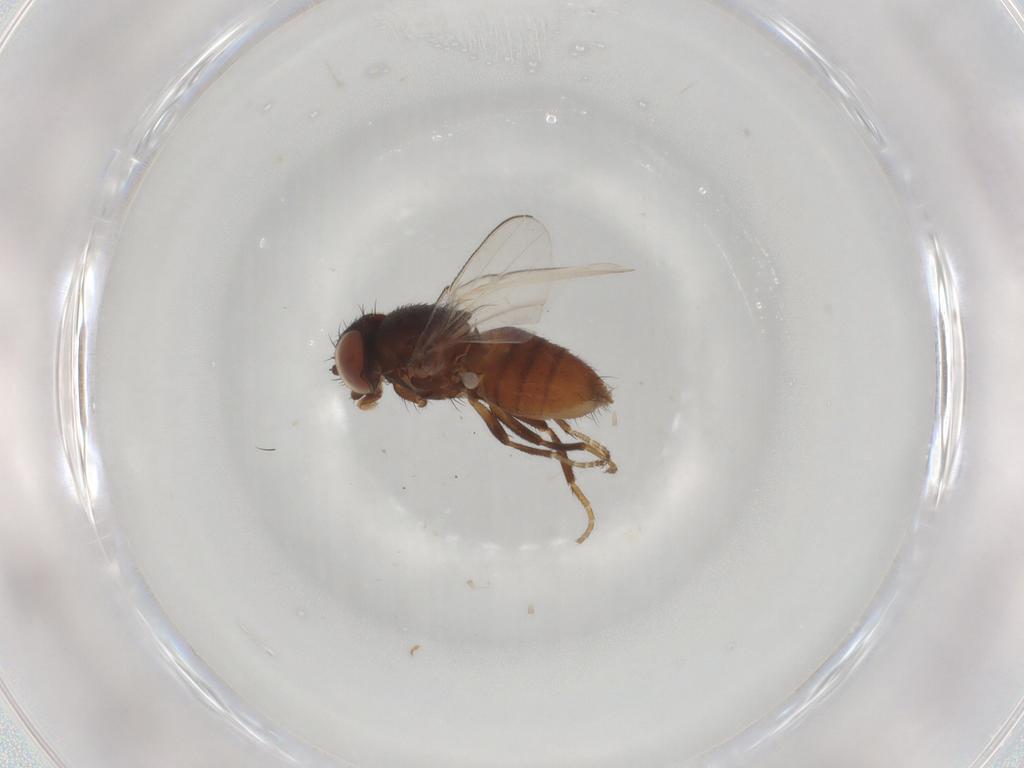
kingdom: Animalia
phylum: Arthropoda
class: Insecta
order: Diptera
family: Milichiidae
